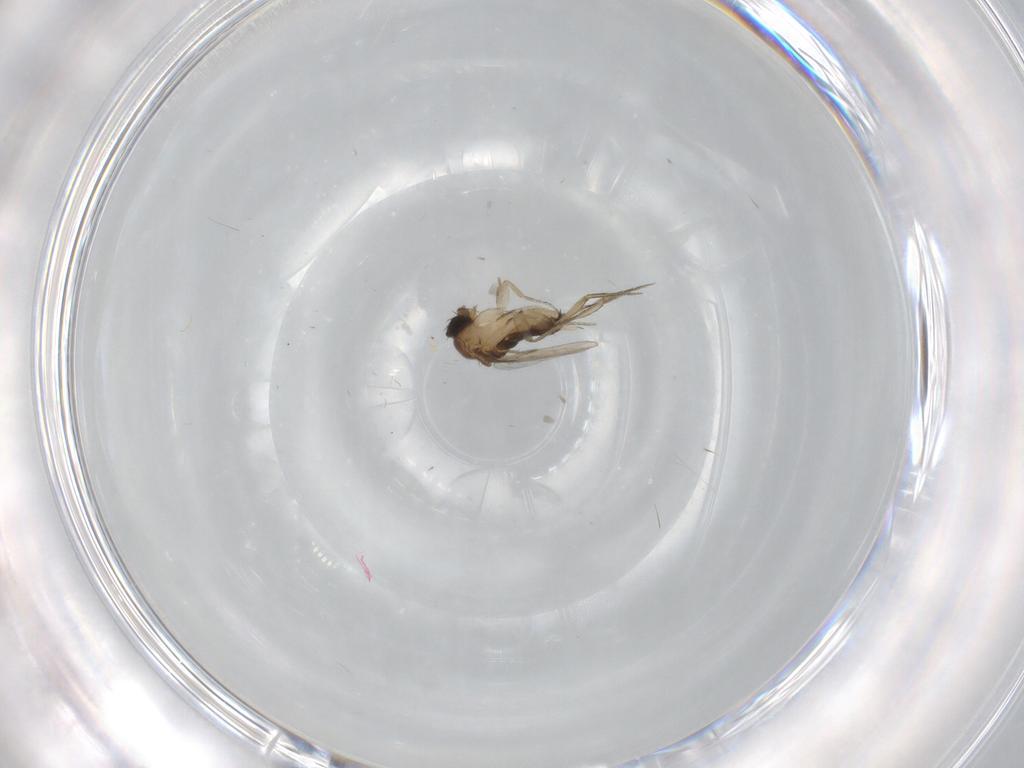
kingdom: Animalia
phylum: Arthropoda
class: Insecta
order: Diptera
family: Phoridae
